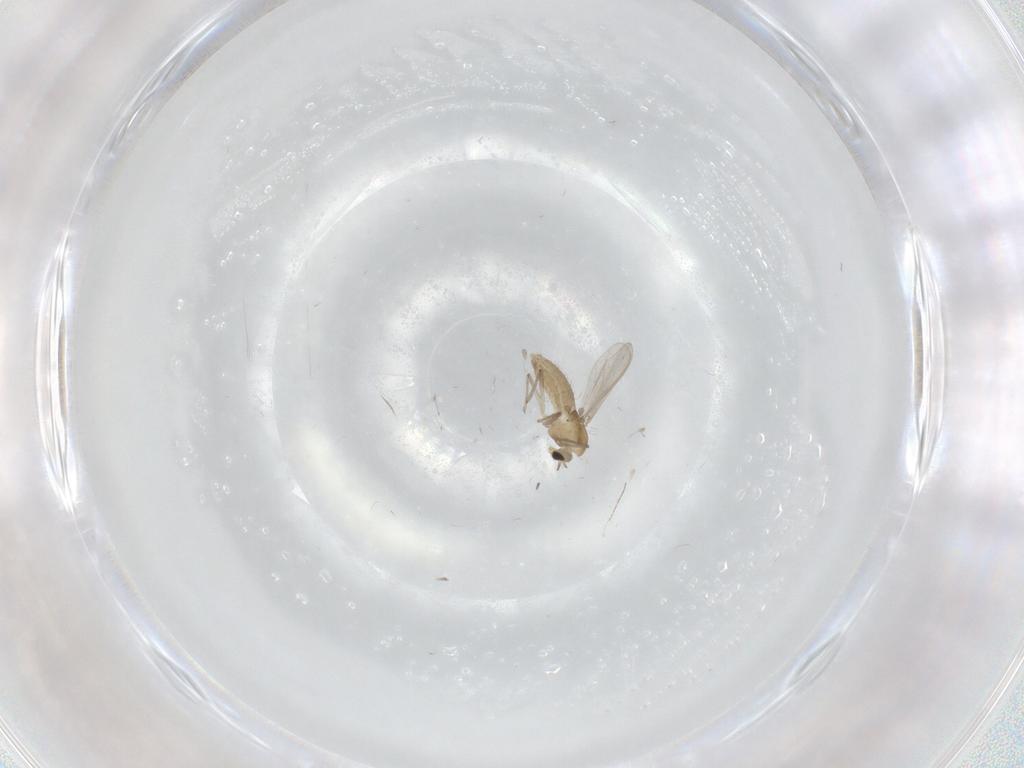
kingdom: Animalia
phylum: Arthropoda
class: Insecta
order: Diptera
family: Chironomidae
